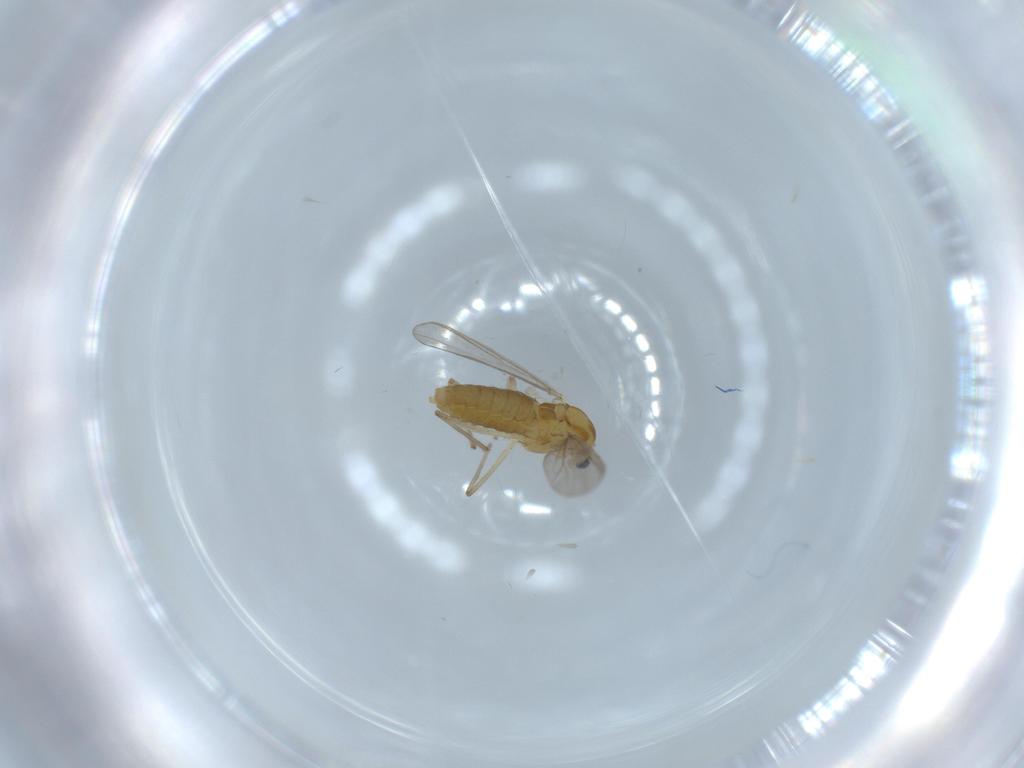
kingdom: Animalia
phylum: Arthropoda
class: Insecta
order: Diptera
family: Chironomidae
